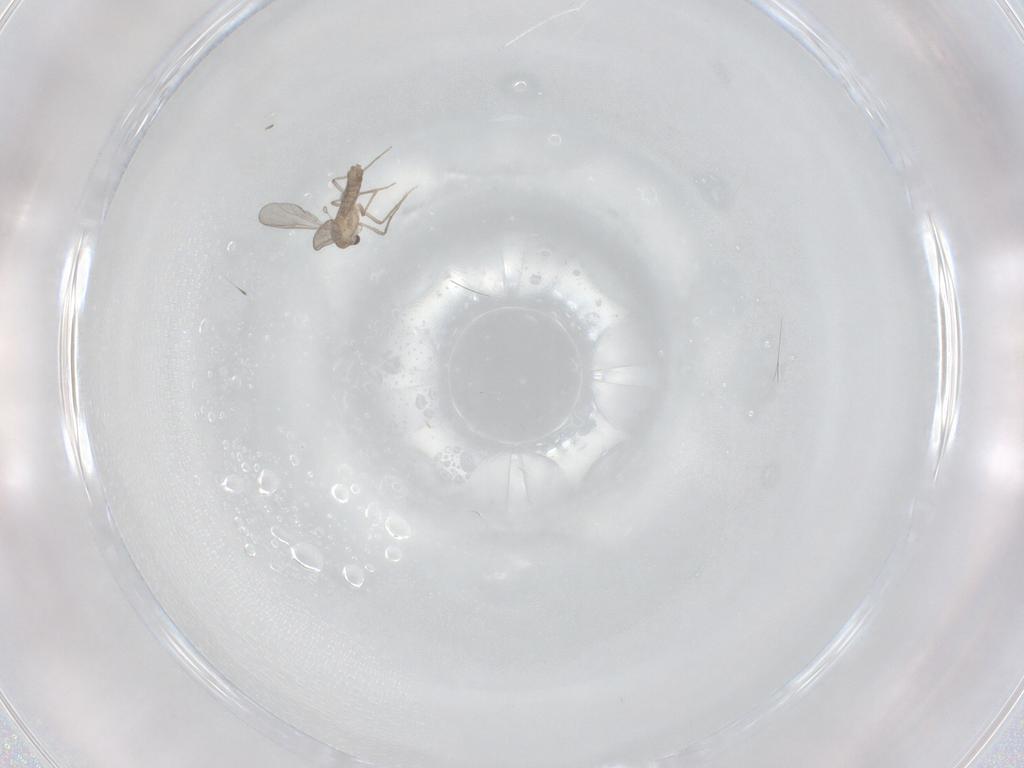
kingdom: Animalia
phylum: Arthropoda
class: Insecta
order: Diptera
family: Chironomidae
